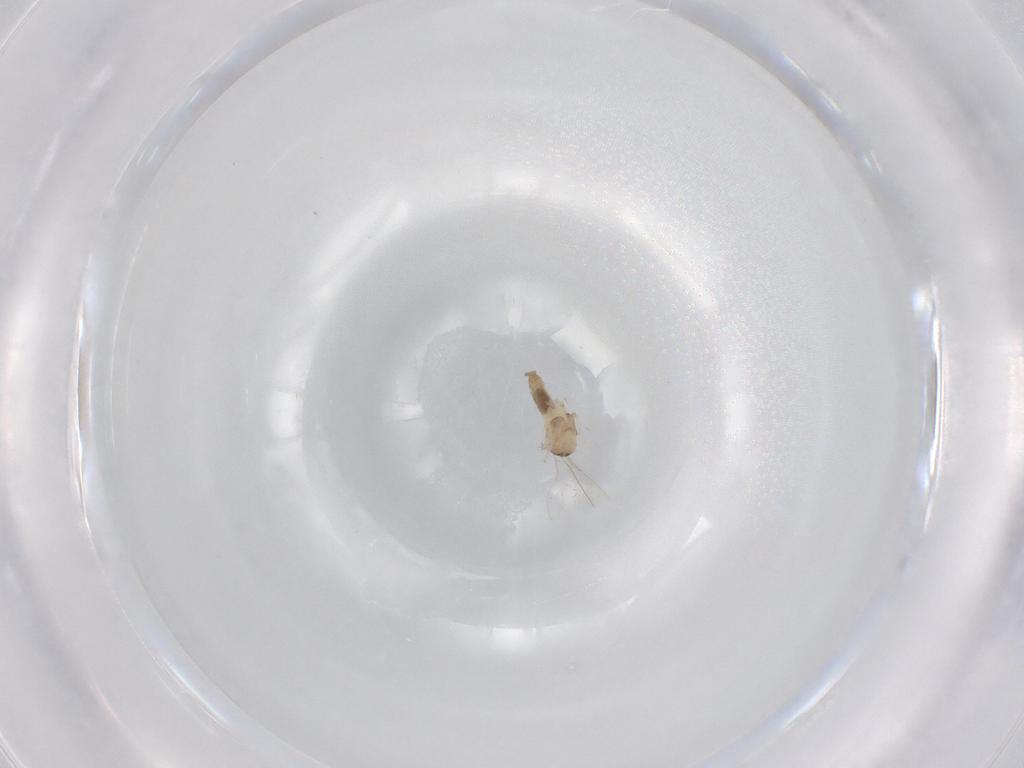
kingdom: Animalia
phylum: Arthropoda
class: Insecta
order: Diptera
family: Cecidomyiidae
